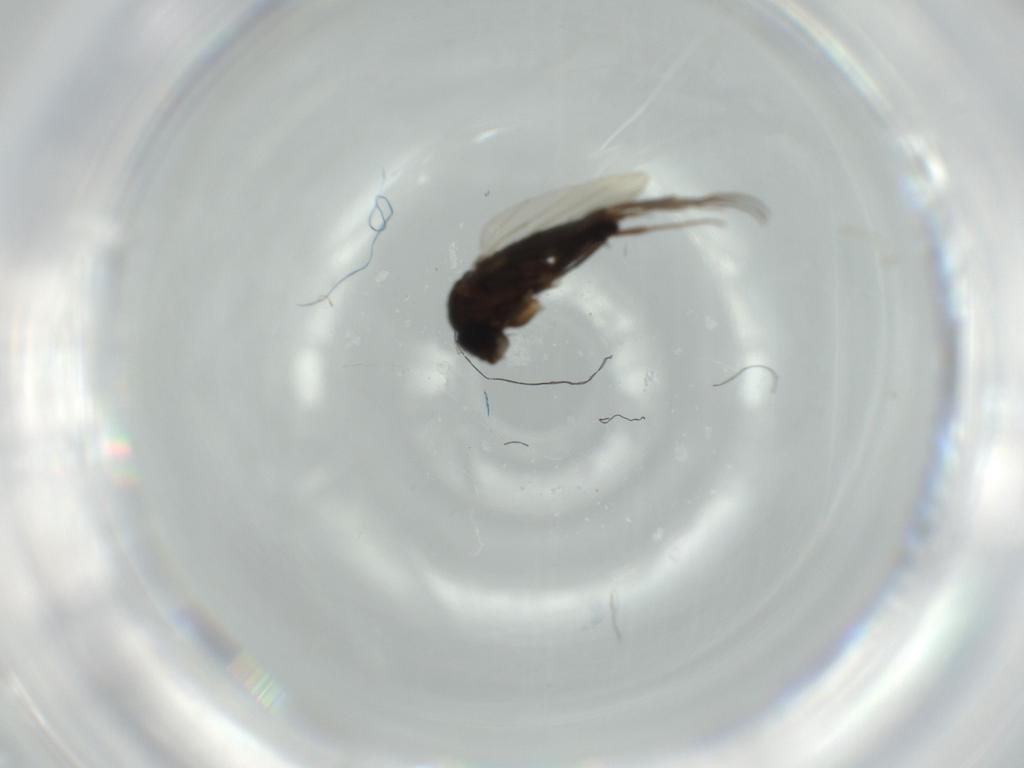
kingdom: Animalia
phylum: Arthropoda
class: Insecta
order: Diptera
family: Phoridae
